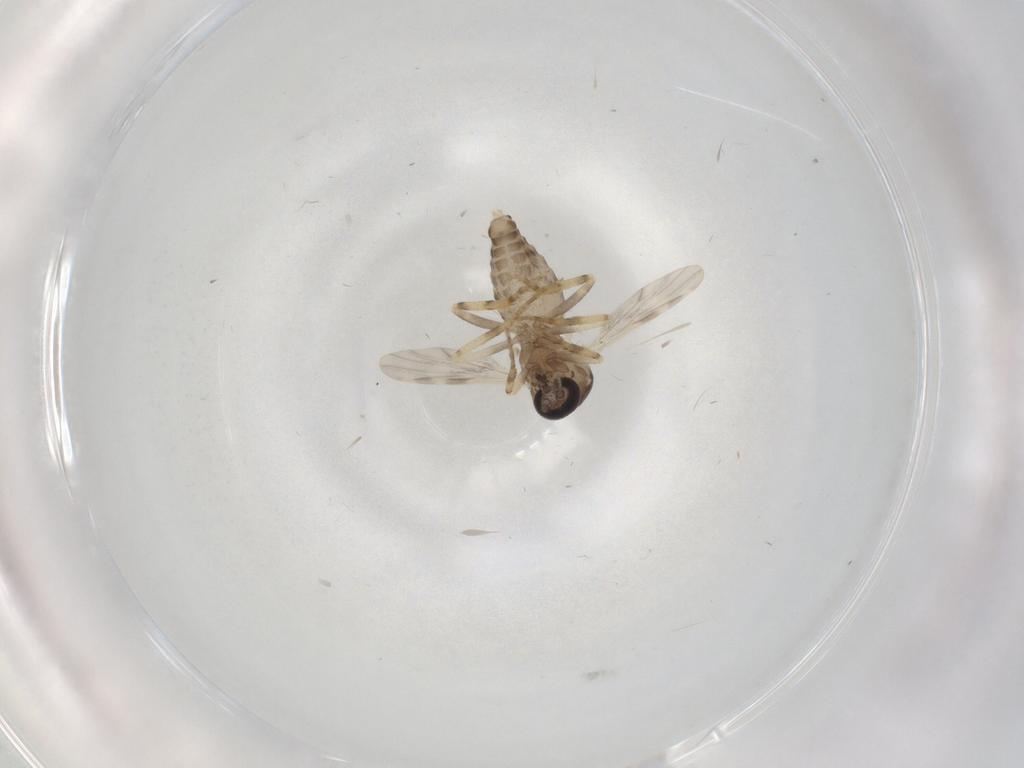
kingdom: Animalia
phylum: Arthropoda
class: Insecta
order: Diptera
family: Ceratopogonidae
